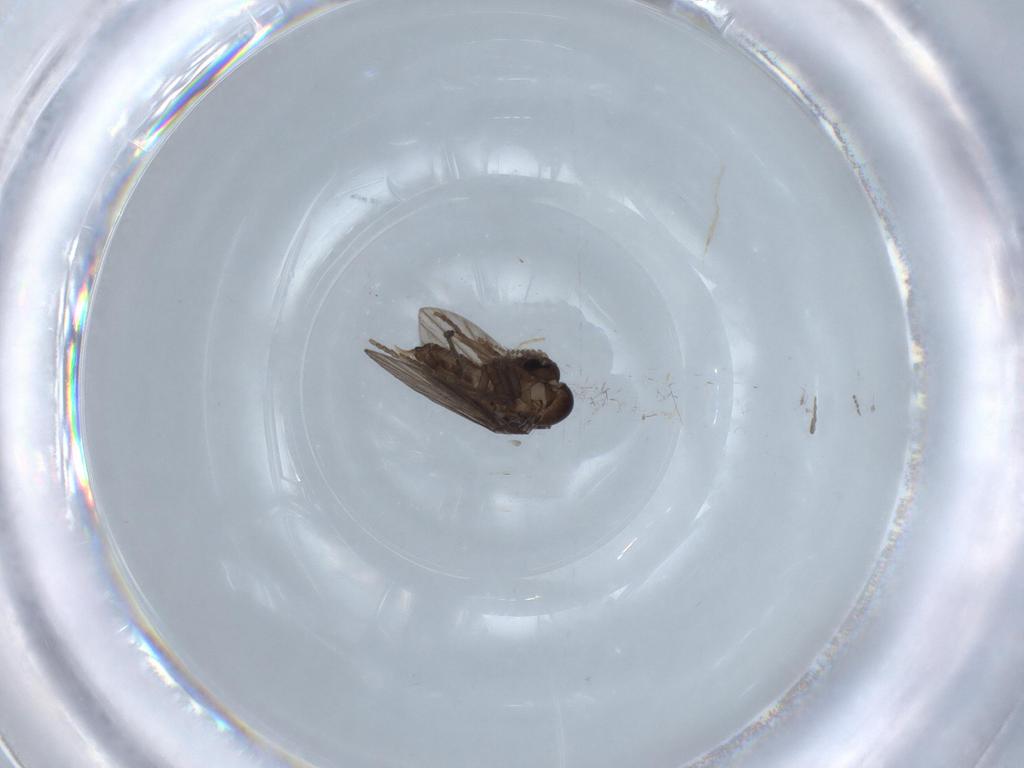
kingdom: Animalia
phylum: Arthropoda
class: Insecta
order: Diptera
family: Psychodidae
